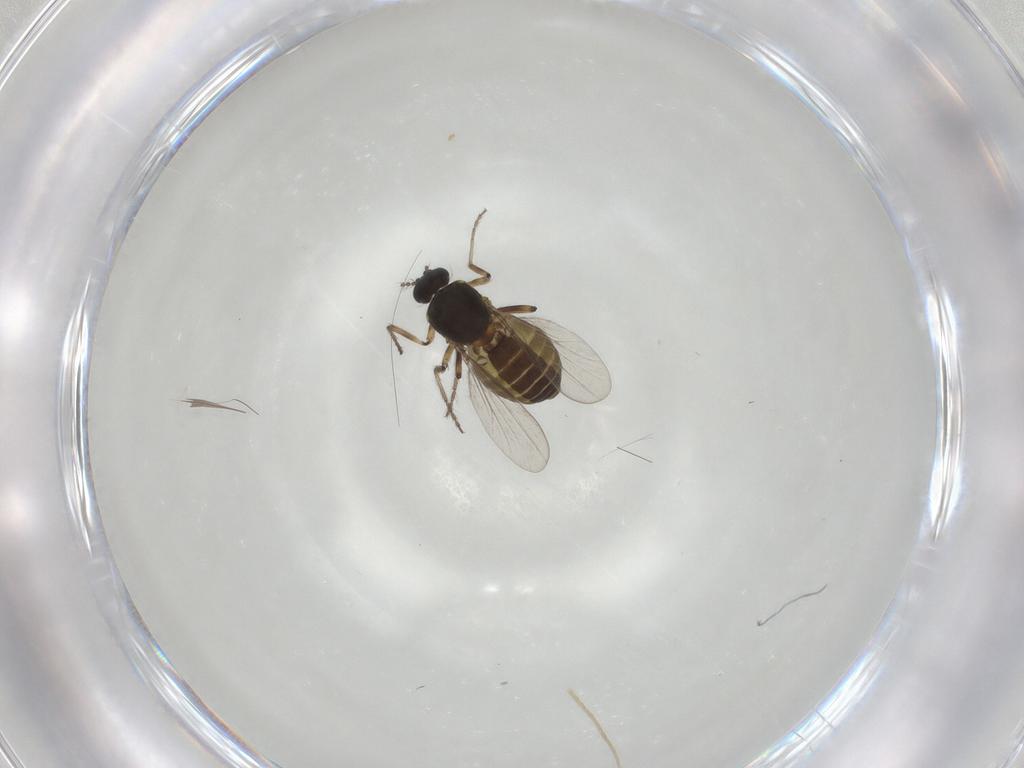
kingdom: Animalia
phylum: Arthropoda
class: Insecta
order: Diptera
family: Ceratopogonidae
